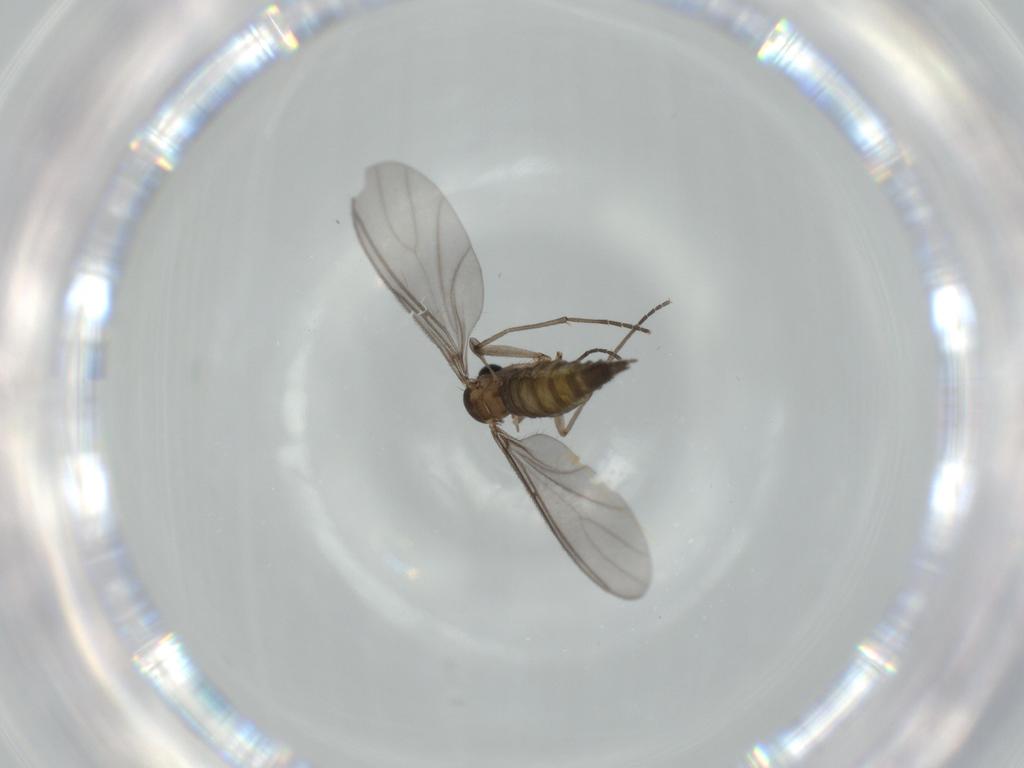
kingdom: Animalia
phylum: Arthropoda
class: Insecta
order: Diptera
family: Sciaridae
